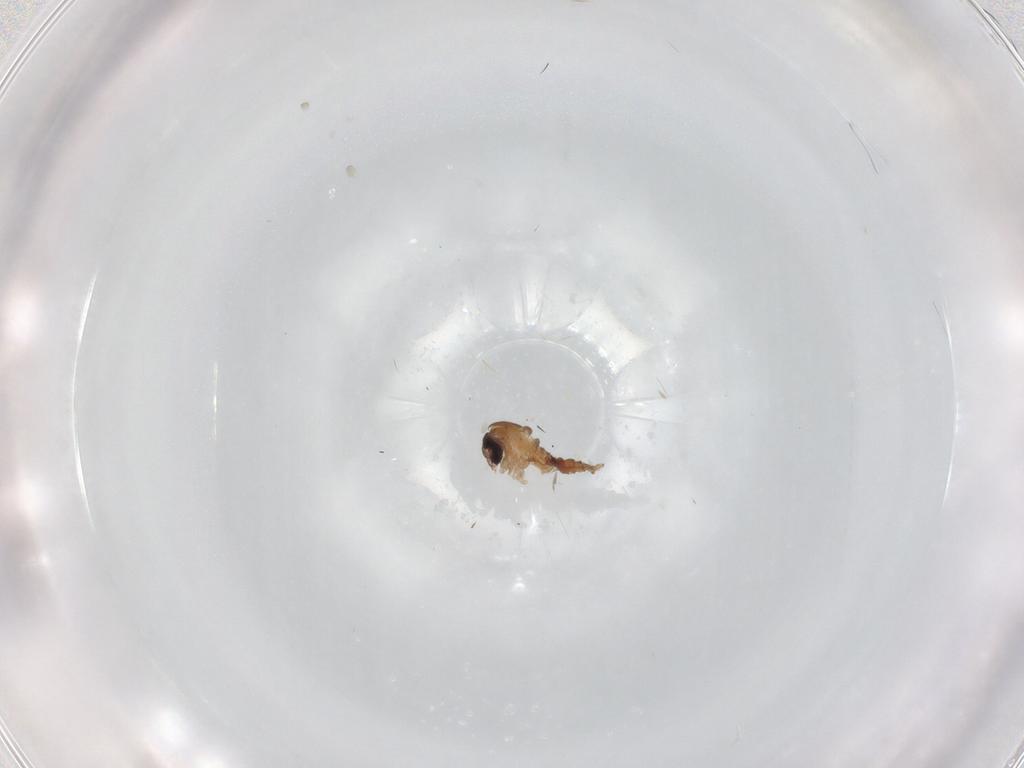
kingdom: Animalia
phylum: Arthropoda
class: Insecta
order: Diptera
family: Psychodidae
